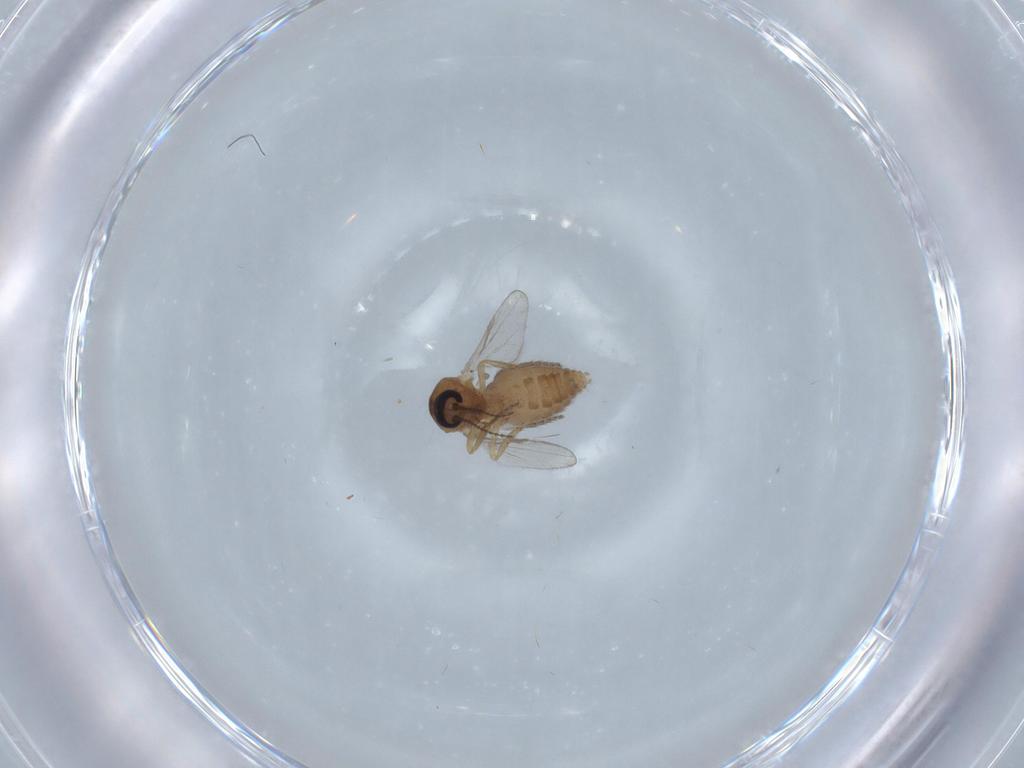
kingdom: Animalia
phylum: Arthropoda
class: Insecta
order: Diptera
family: Ceratopogonidae
